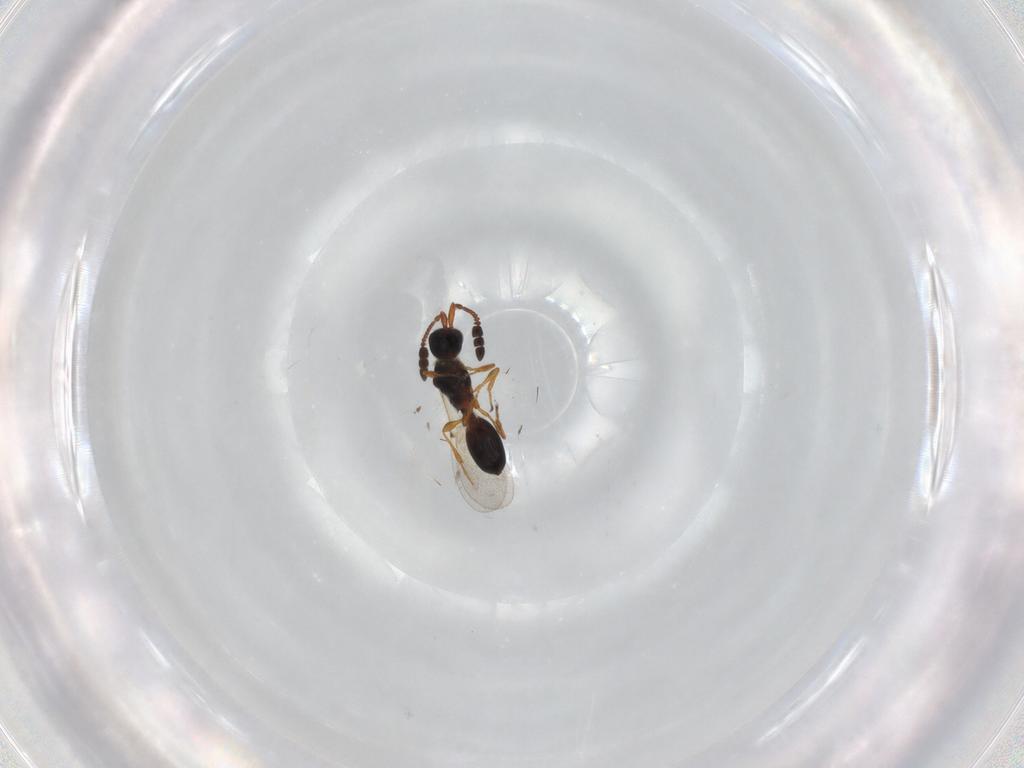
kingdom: Animalia
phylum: Arthropoda
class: Insecta
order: Hymenoptera
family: Diapriidae
